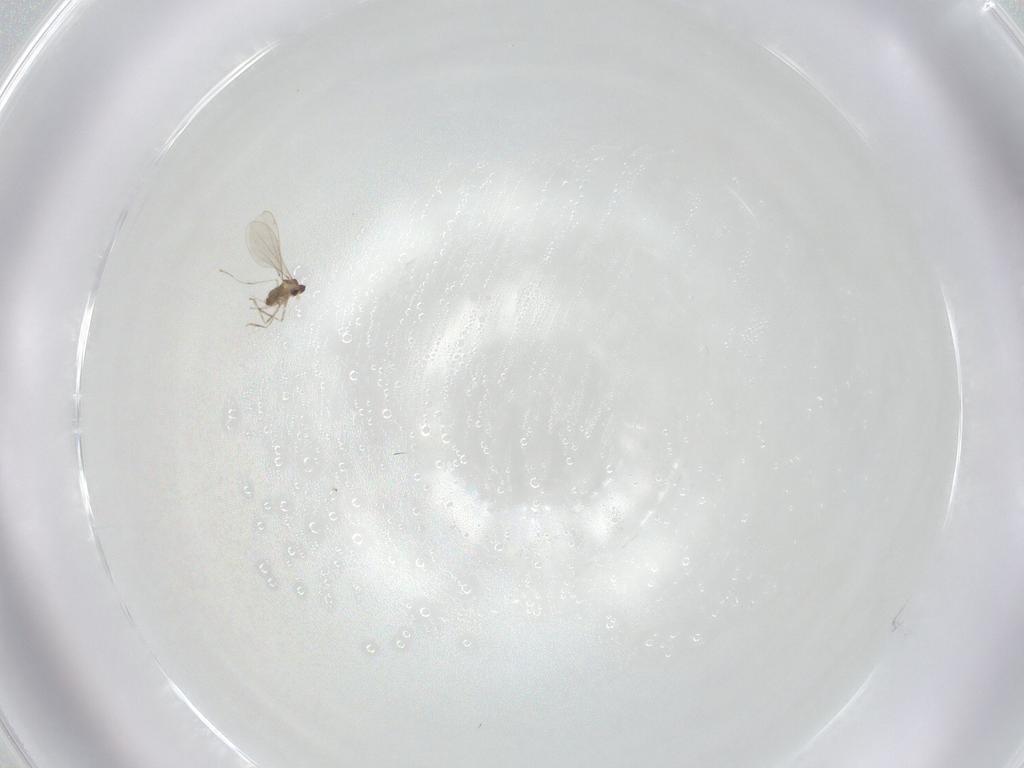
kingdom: Animalia
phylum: Arthropoda
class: Insecta
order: Diptera
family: Cecidomyiidae
